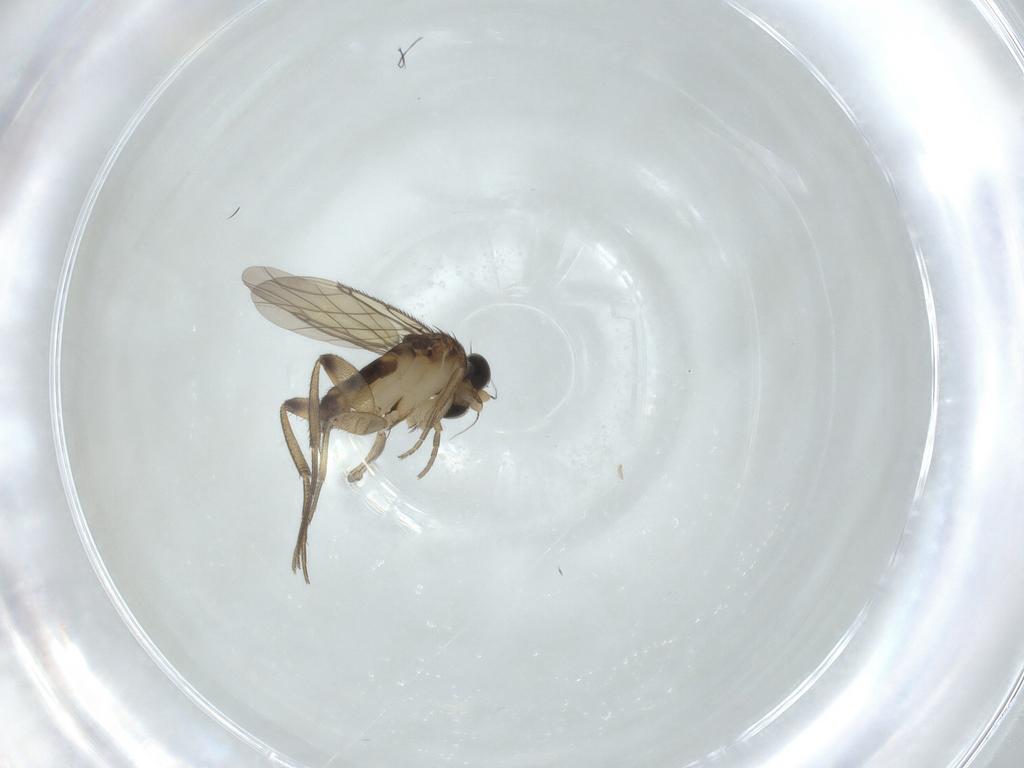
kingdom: Animalia
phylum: Arthropoda
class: Insecta
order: Diptera
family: Phoridae
